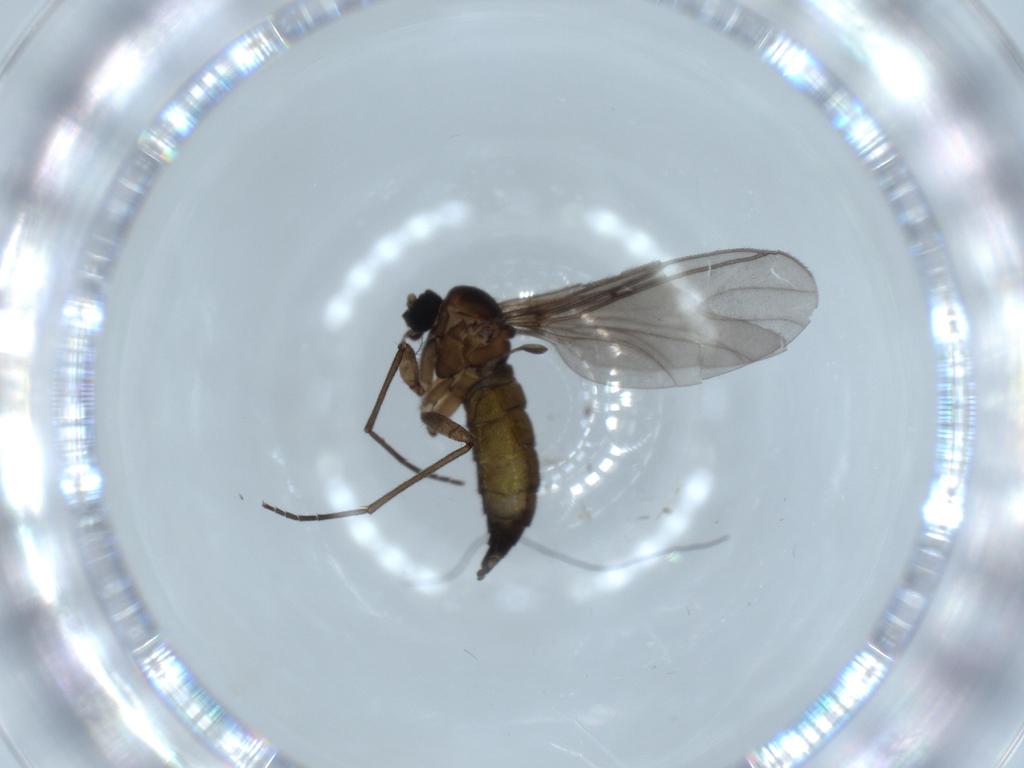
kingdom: Animalia
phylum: Arthropoda
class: Insecta
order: Diptera
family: Sciaridae
